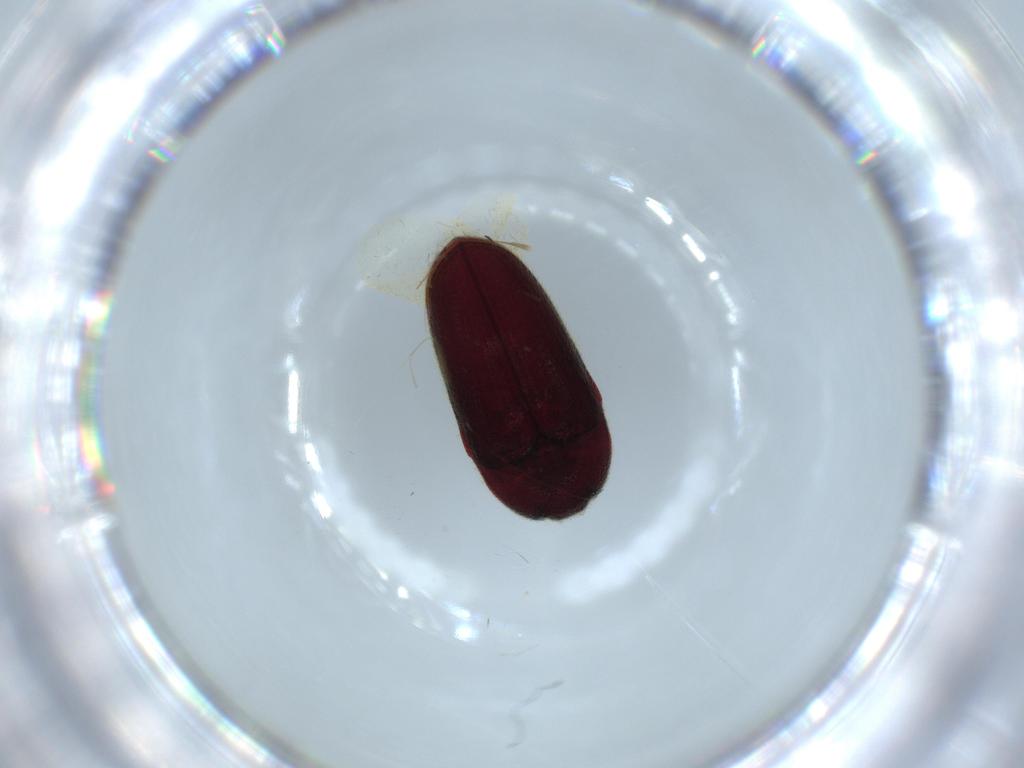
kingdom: Animalia
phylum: Arthropoda
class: Insecta
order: Coleoptera
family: Throscidae
